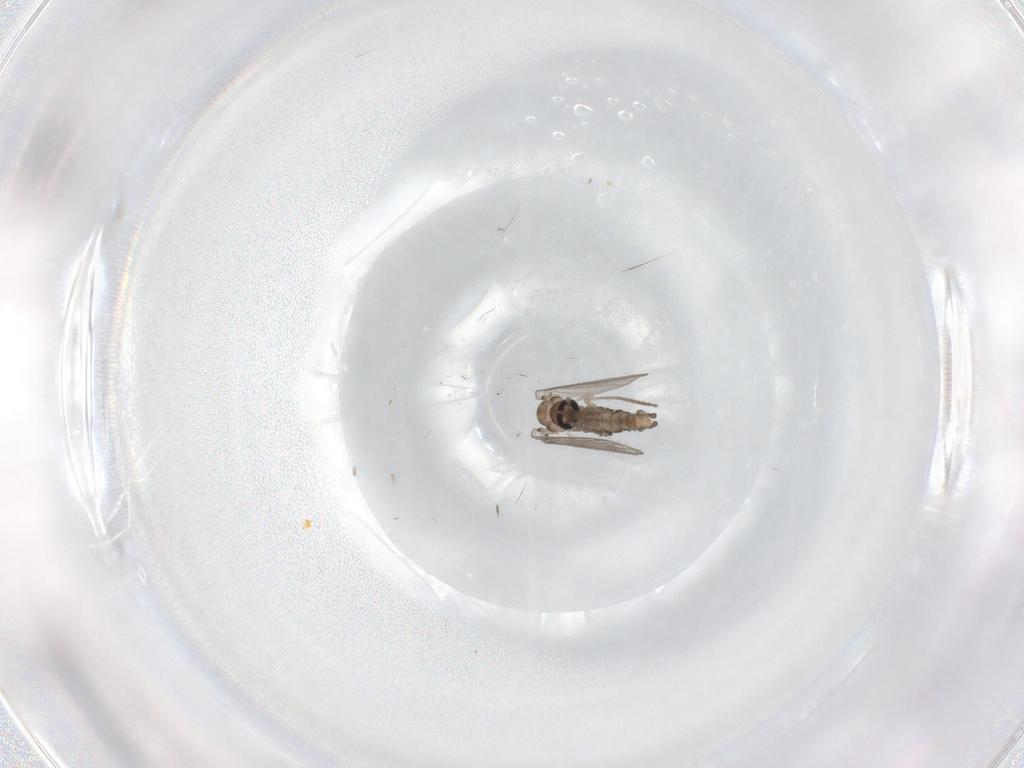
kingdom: Animalia
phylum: Arthropoda
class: Insecta
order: Diptera
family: Psychodidae
